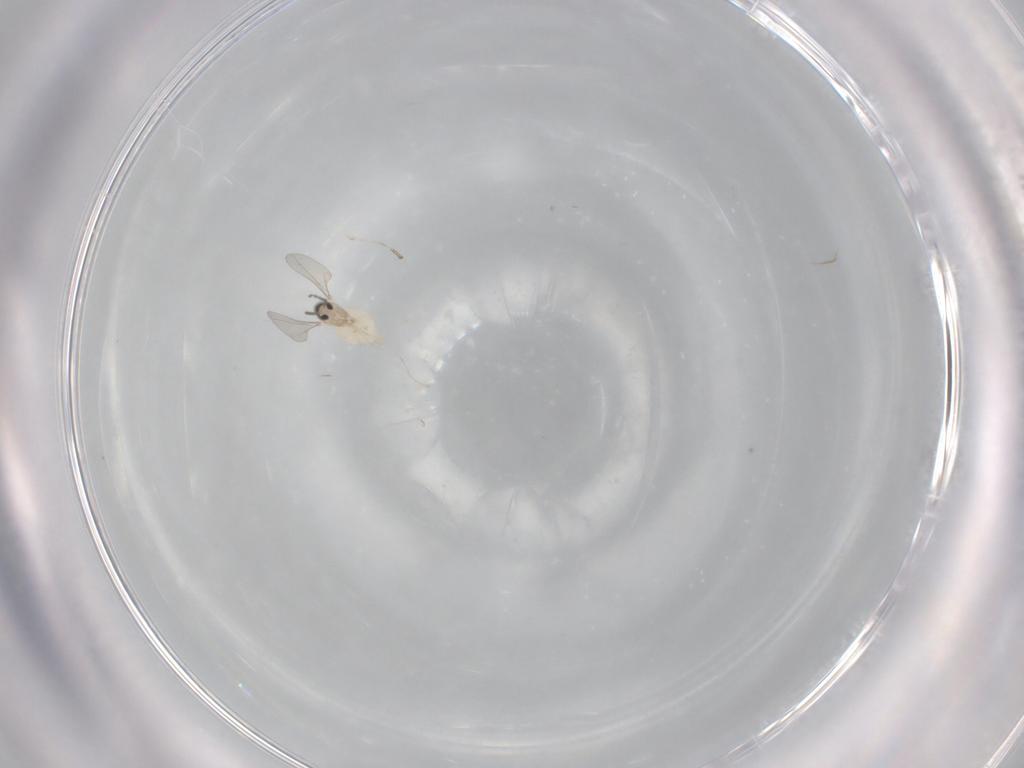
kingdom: Animalia
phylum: Arthropoda
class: Insecta
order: Diptera
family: Cecidomyiidae
